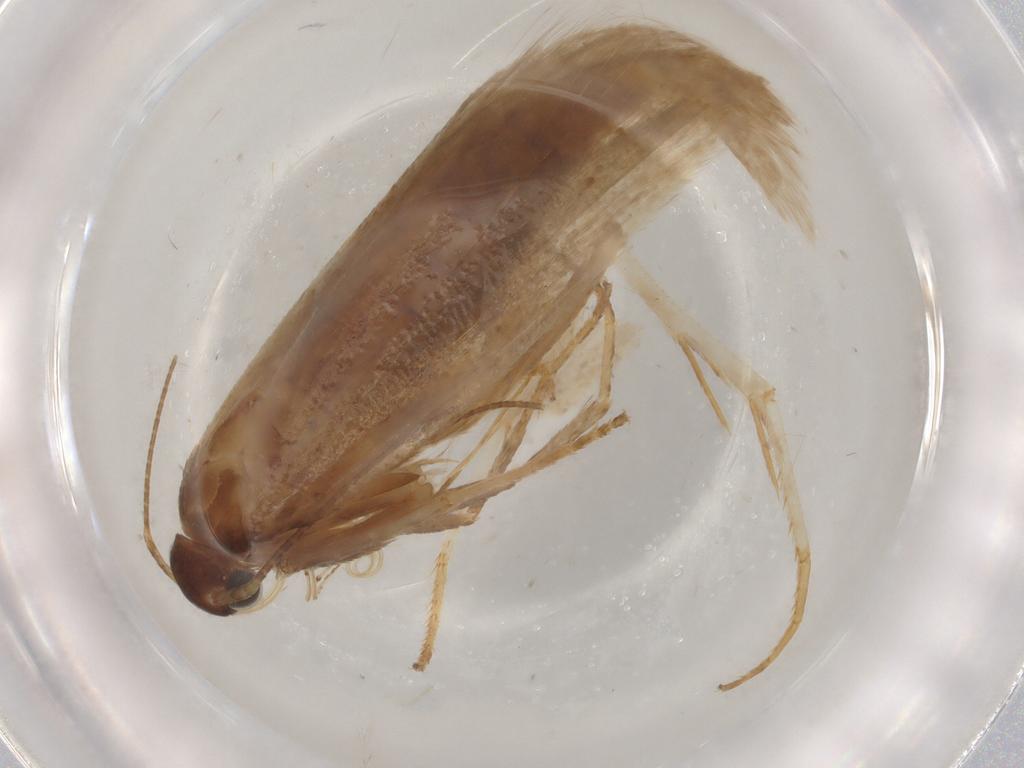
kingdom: Animalia
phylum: Arthropoda
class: Insecta
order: Lepidoptera
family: Erebidae
